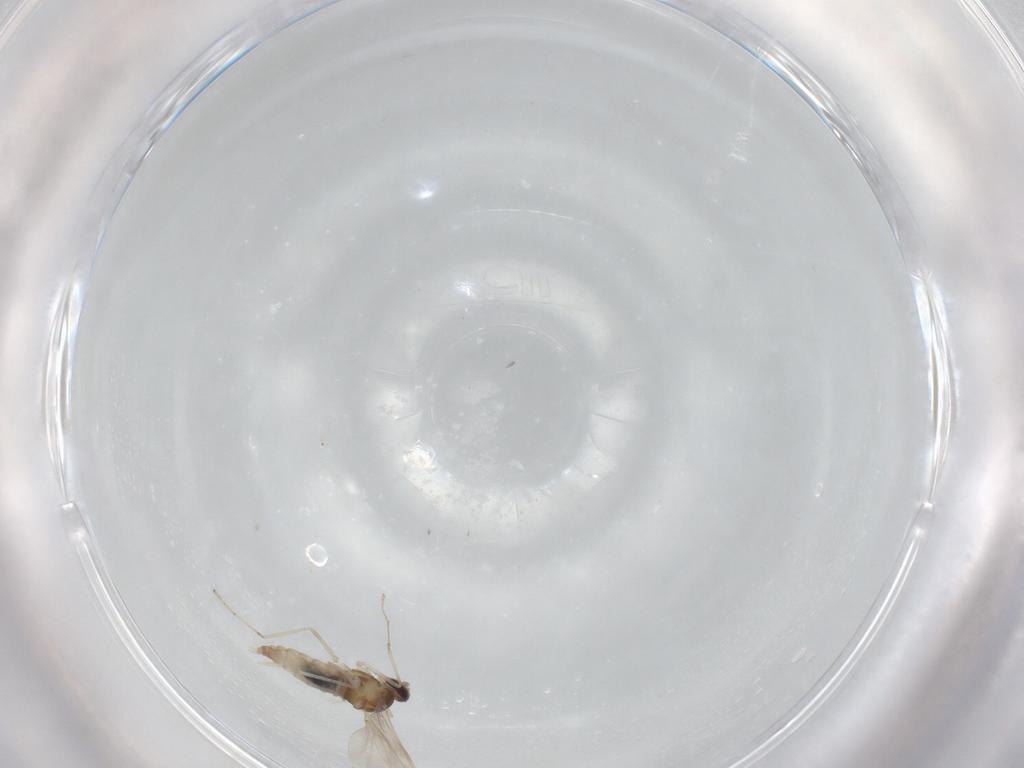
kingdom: Animalia
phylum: Arthropoda
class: Insecta
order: Diptera
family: Cecidomyiidae
